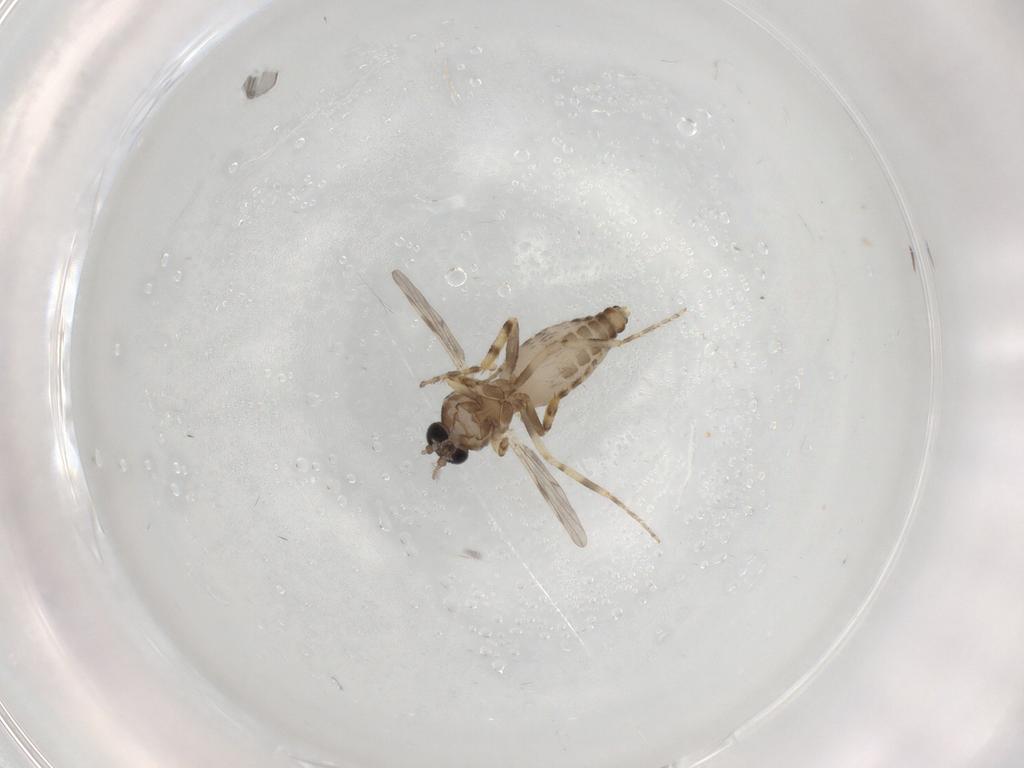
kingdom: Animalia
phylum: Arthropoda
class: Insecta
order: Diptera
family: Ceratopogonidae
